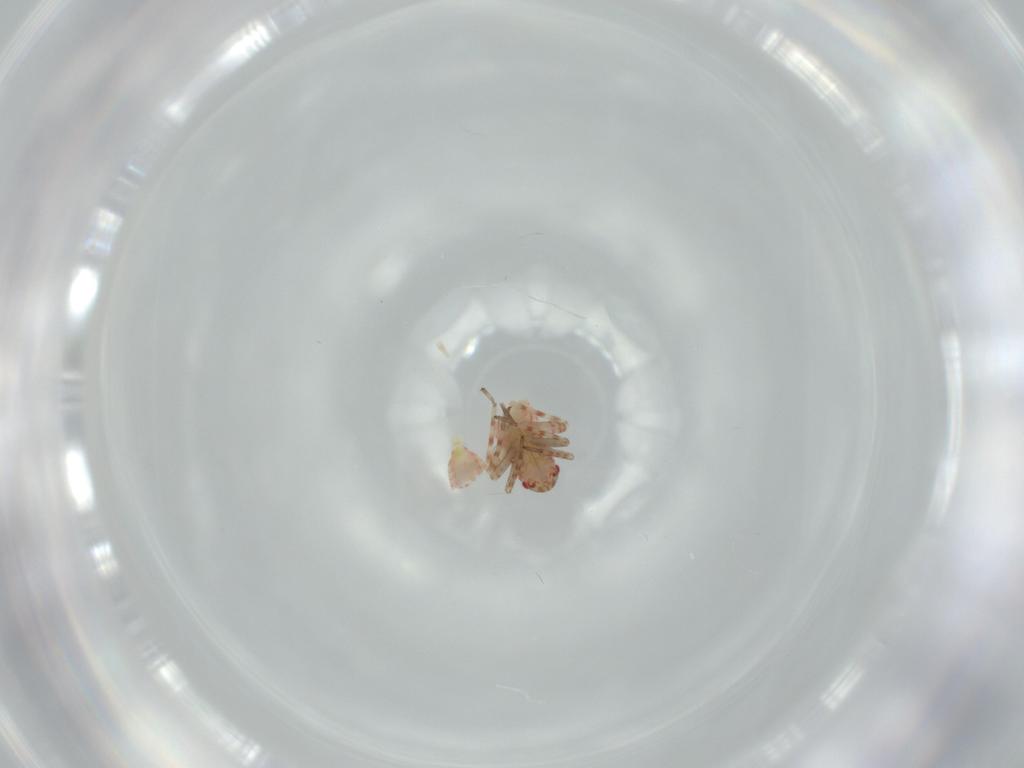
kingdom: Animalia
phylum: Arthropoda
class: Insecta
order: Hemiptera
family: Miridae
